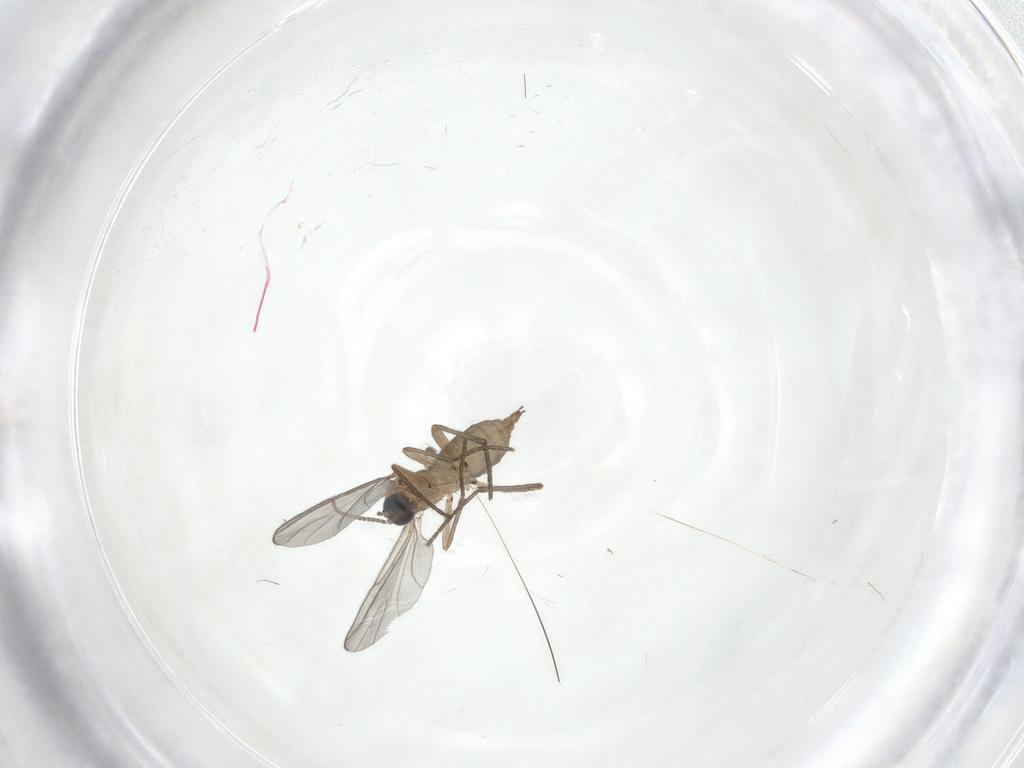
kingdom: Animalia
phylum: Arthropoda
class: Insecta
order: Diptera
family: Sciaridae
